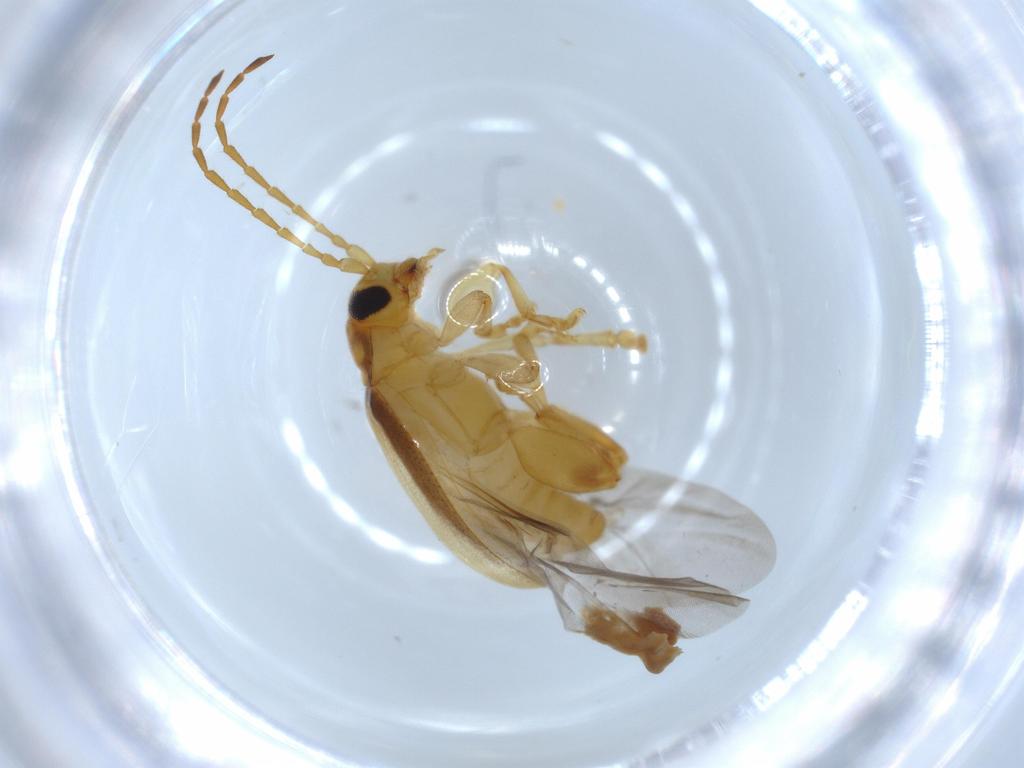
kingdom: Animalia
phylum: Arthropoda
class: Insecta
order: Coleoptera
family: Chrysomelidae
